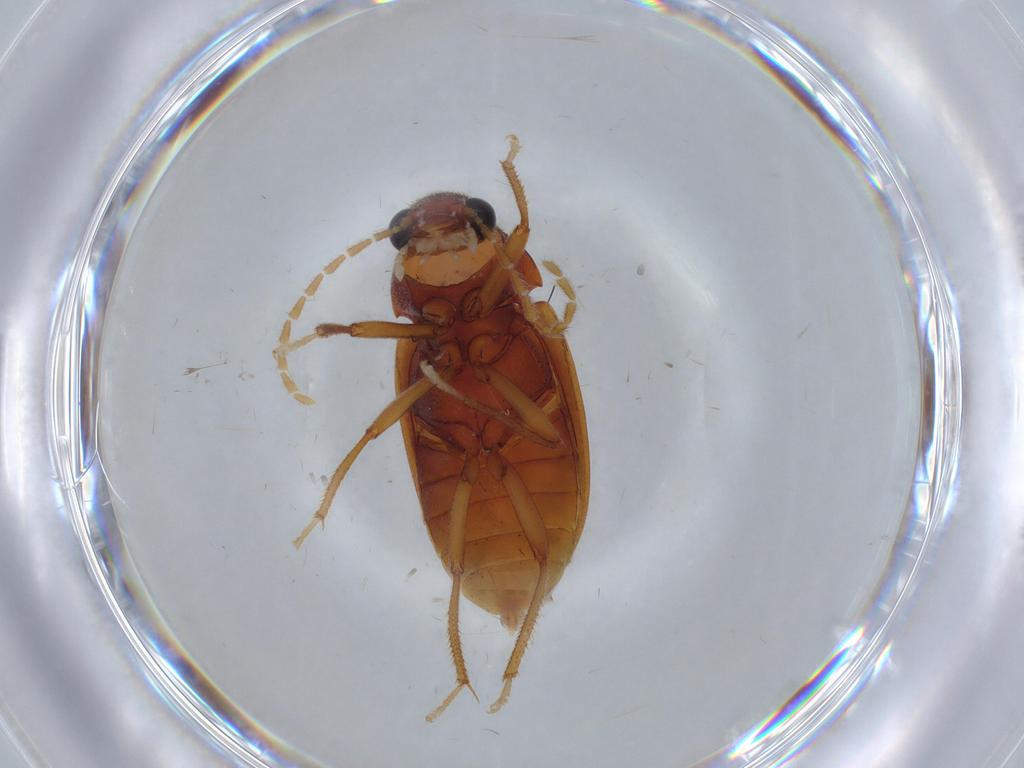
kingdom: Animalia
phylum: Arthropoda
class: Insecta
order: Coleoptera
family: Ptilodactylidae
